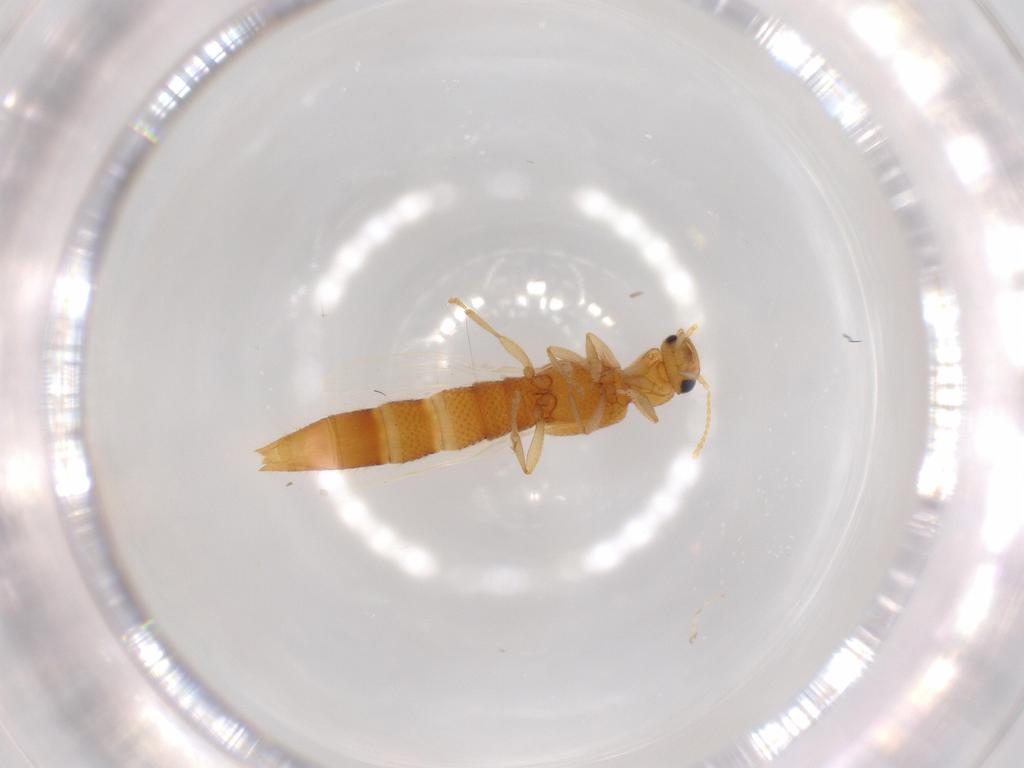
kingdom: Animalia
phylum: Arthropoda
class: Insecta
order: Coleoptera
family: Staphylinidae
